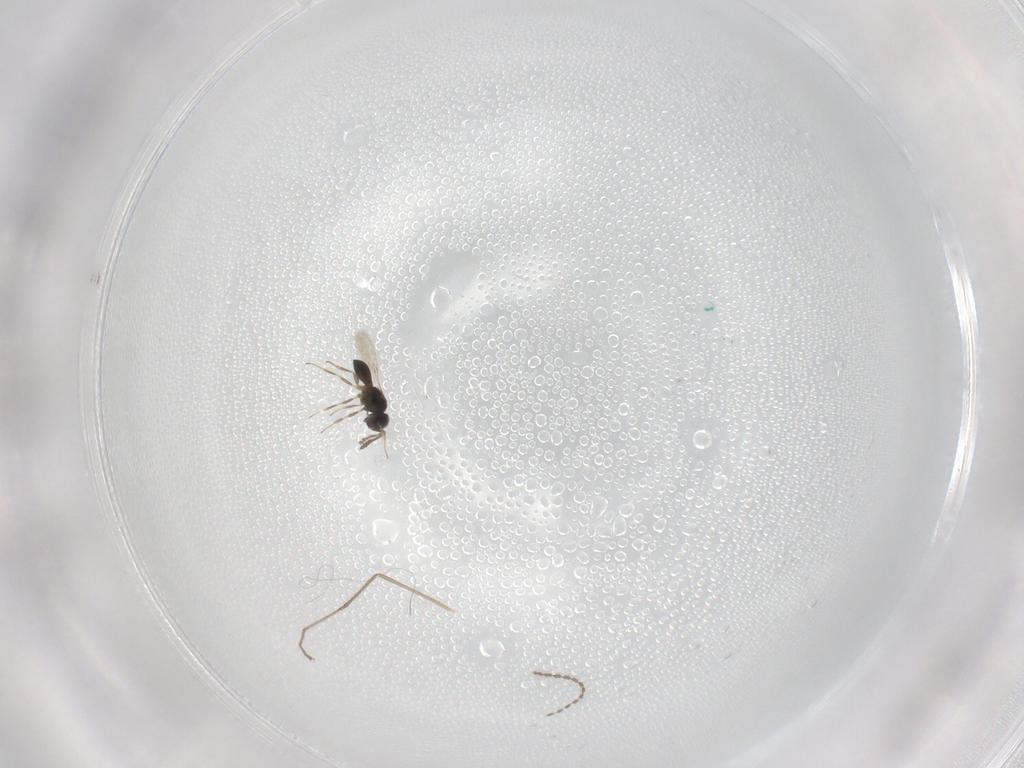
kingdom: Animalia
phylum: Arthropoda
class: Insecta
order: Hymenoptera
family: Scelionidae
